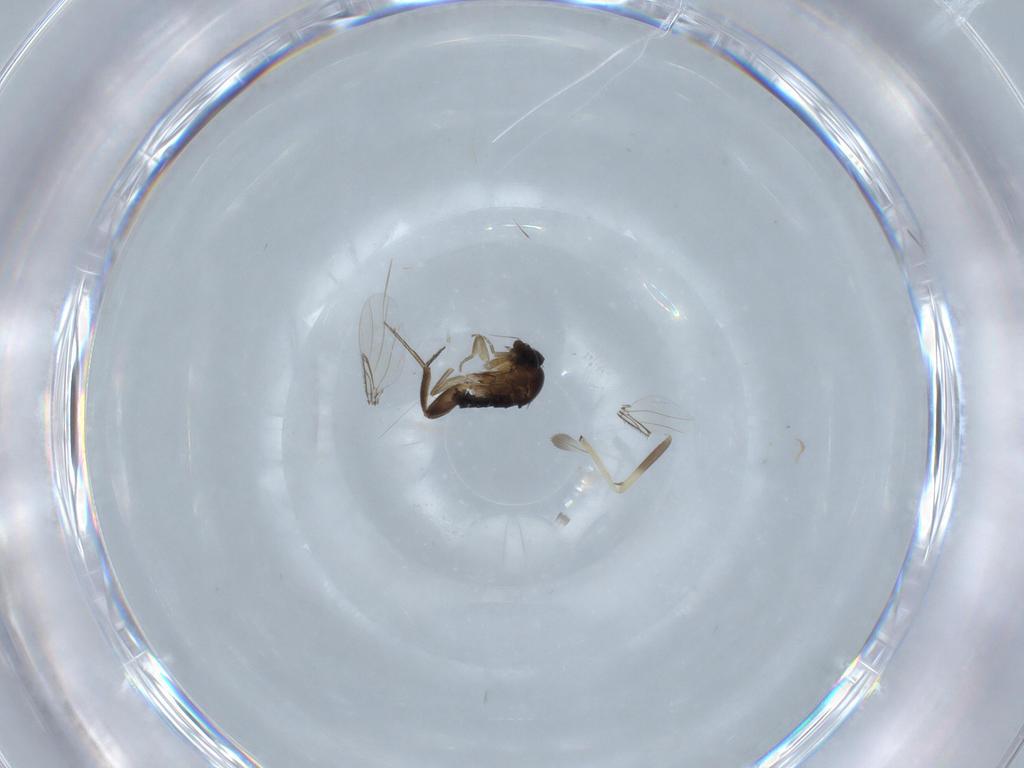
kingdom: Animalia
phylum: Arthropoda
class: Insecta
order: Diptera
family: Phoridae
